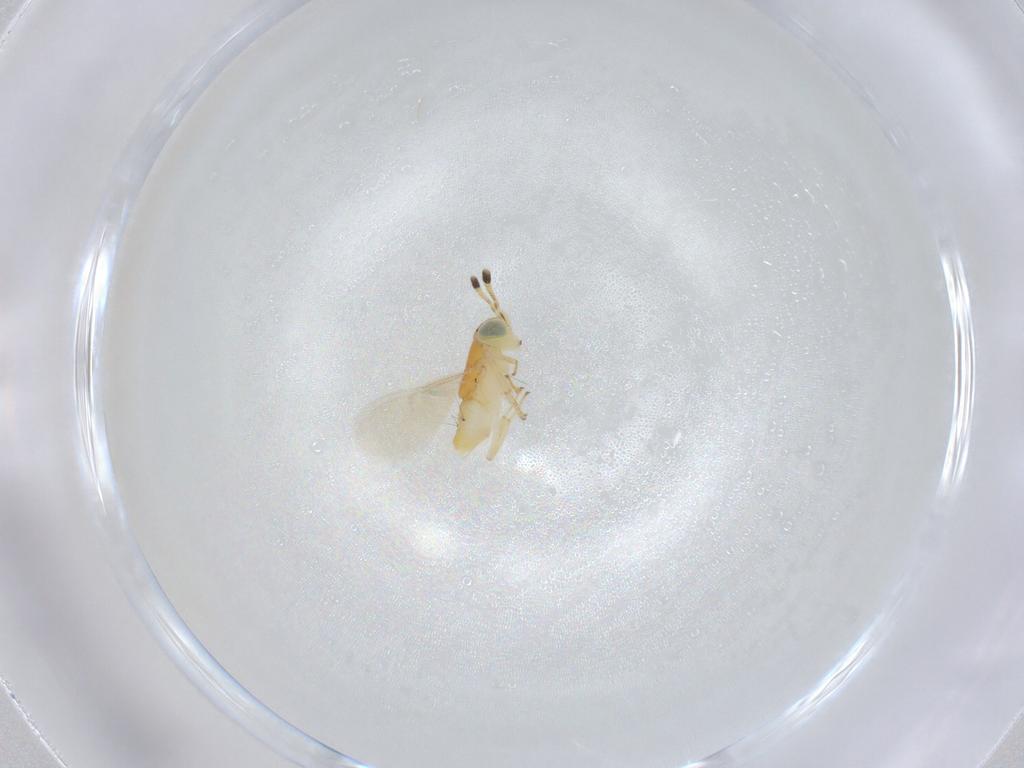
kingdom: Animalia
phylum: Arthropoda
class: Insecta
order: Hymenoptera
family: Encyrtidae
